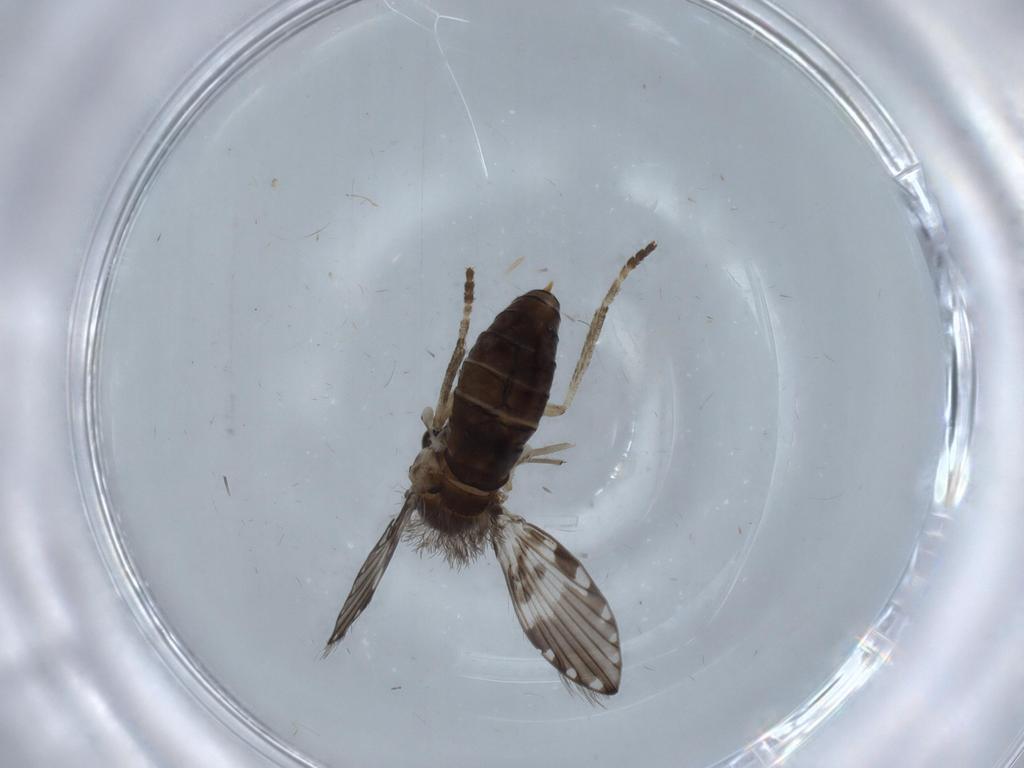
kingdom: Animalia
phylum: Arthropoda
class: Insecta
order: Diptera
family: Psychodidae
